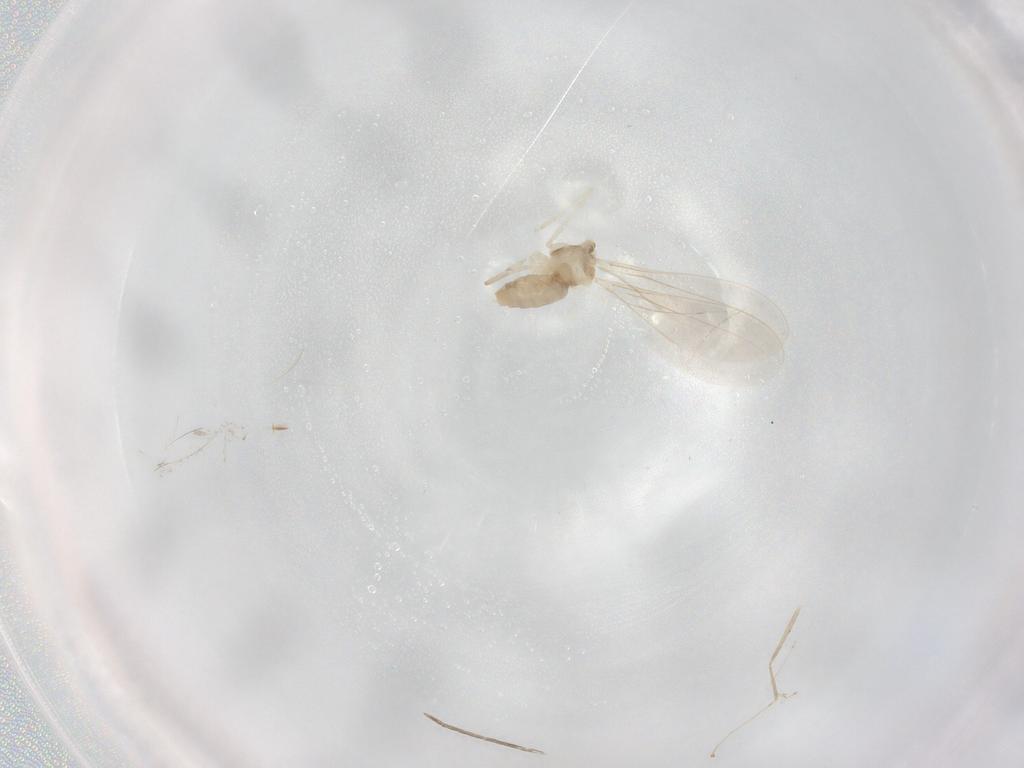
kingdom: Animalia
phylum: Arthropoda
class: Insecta
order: Diptera
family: Cecidomyiidae
